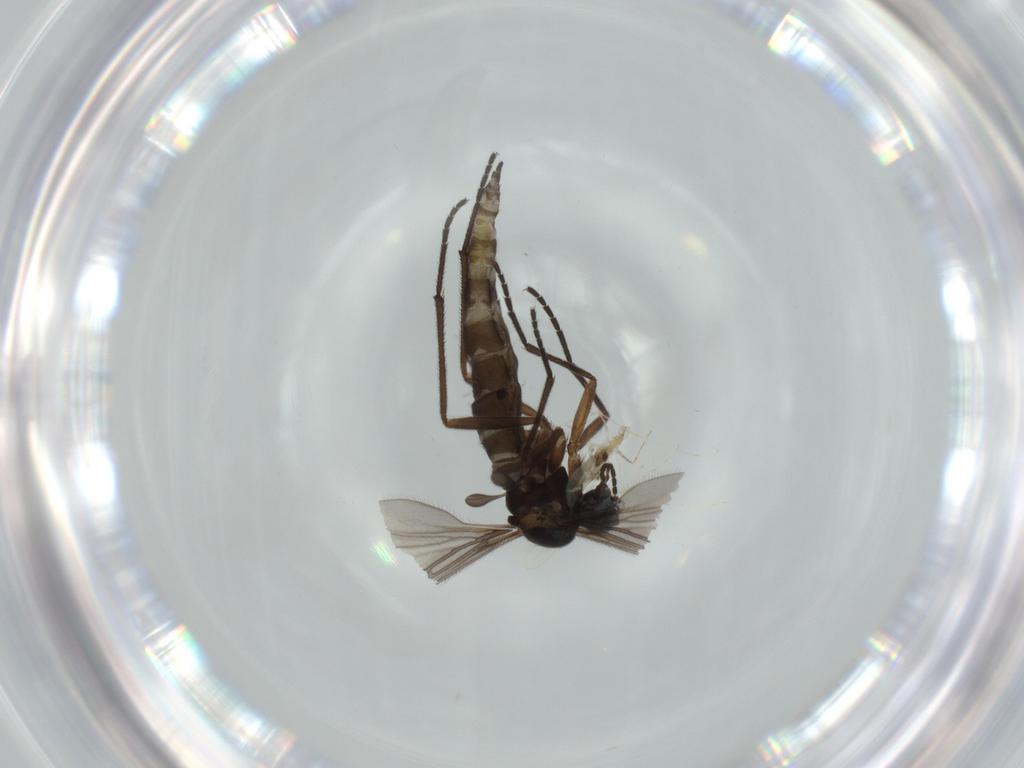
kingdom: Animalia
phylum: Arthropoda
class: Insecta
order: Diptera
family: Cecidomyiidae
